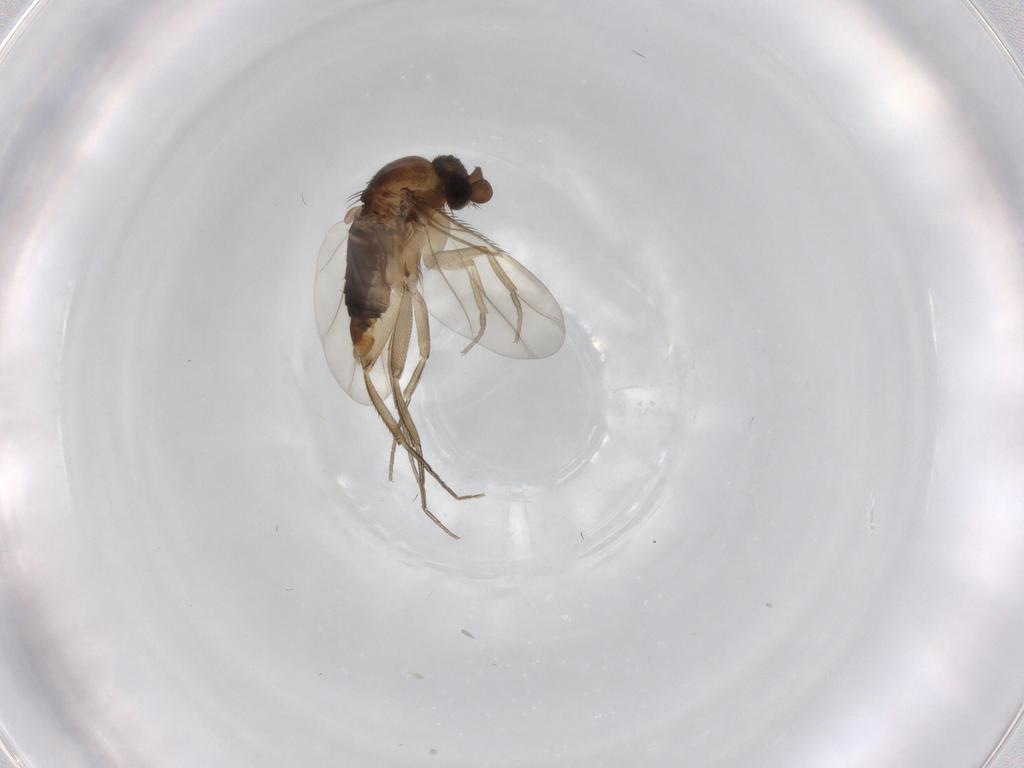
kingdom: Animalia
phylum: Arthropoda
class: Insecta
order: Diptera
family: Phoridae
